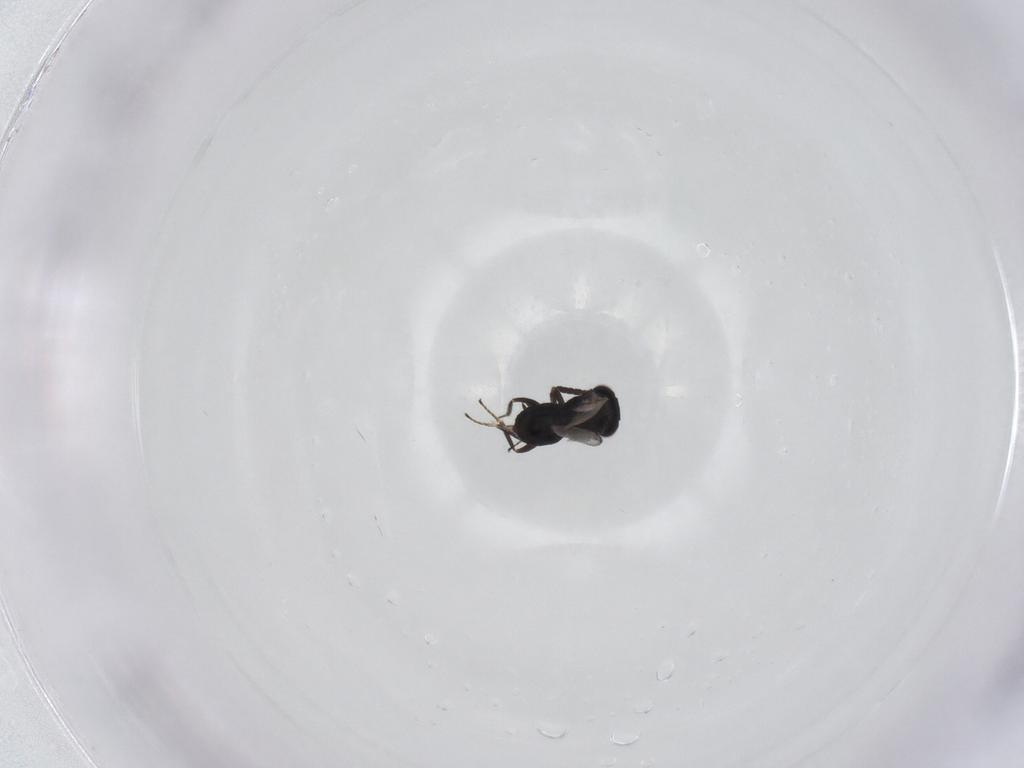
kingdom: Animalia
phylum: Arthropoda
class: Insecta
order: Hymenoptera
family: Eunotidae
